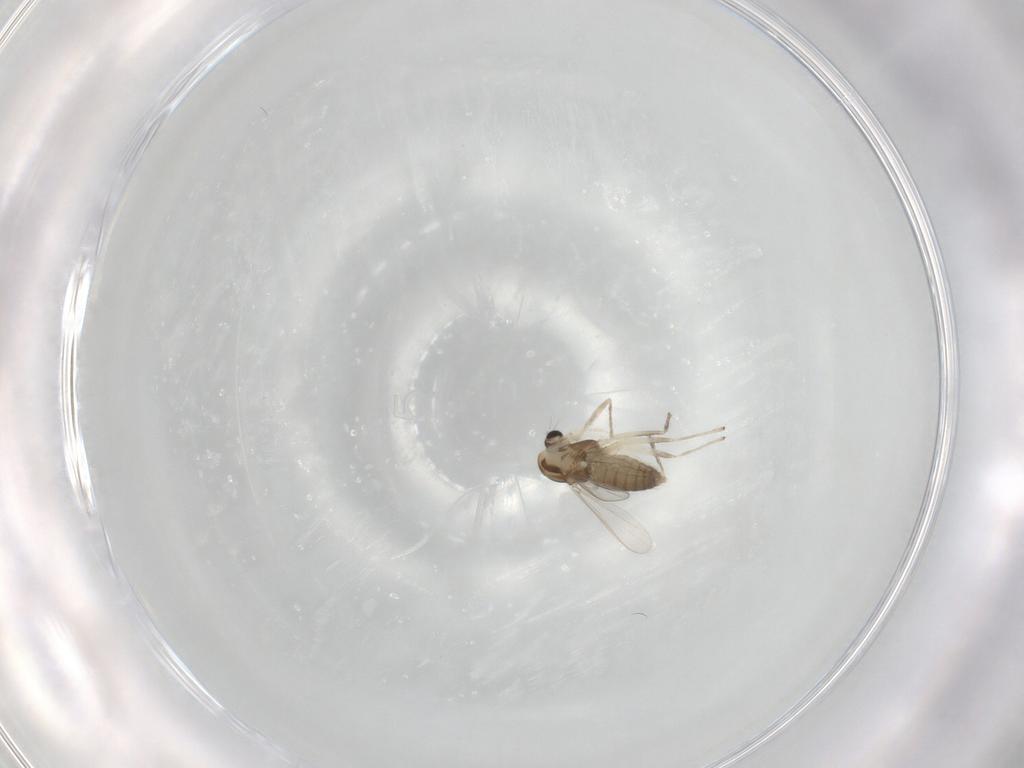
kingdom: Animalia
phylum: Arthropoda
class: Insecta
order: Diptera
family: Chironomidae
